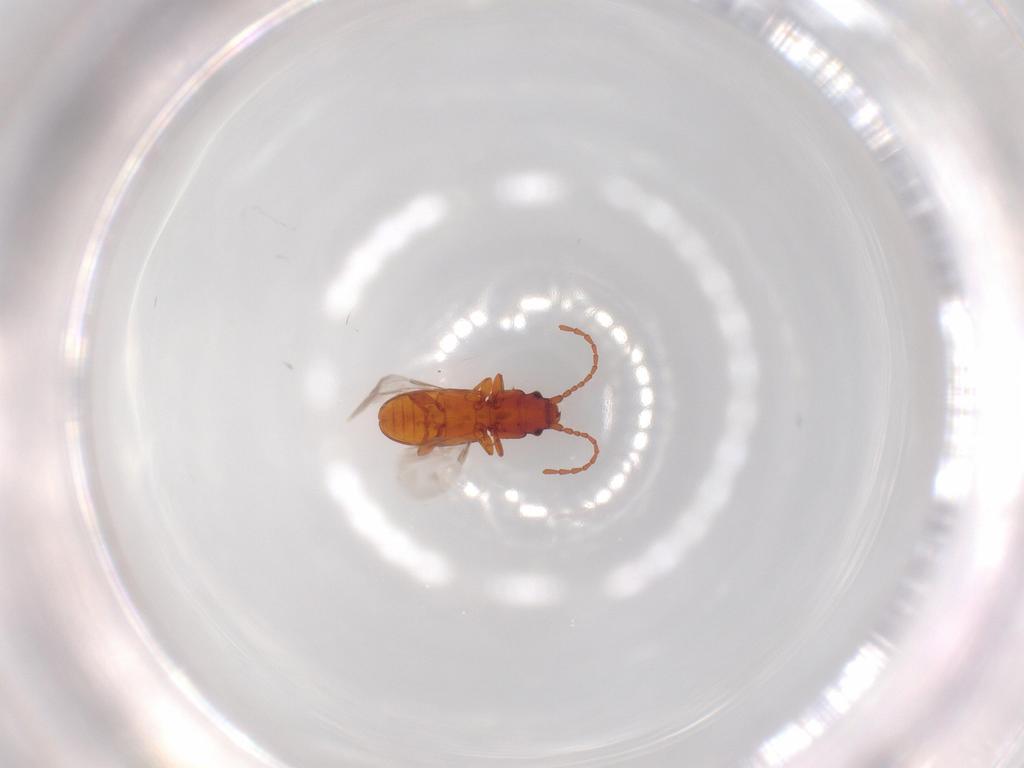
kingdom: Animalia
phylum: Arthropoda
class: Insecta
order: Coleoptera
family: Laemophloeidae
